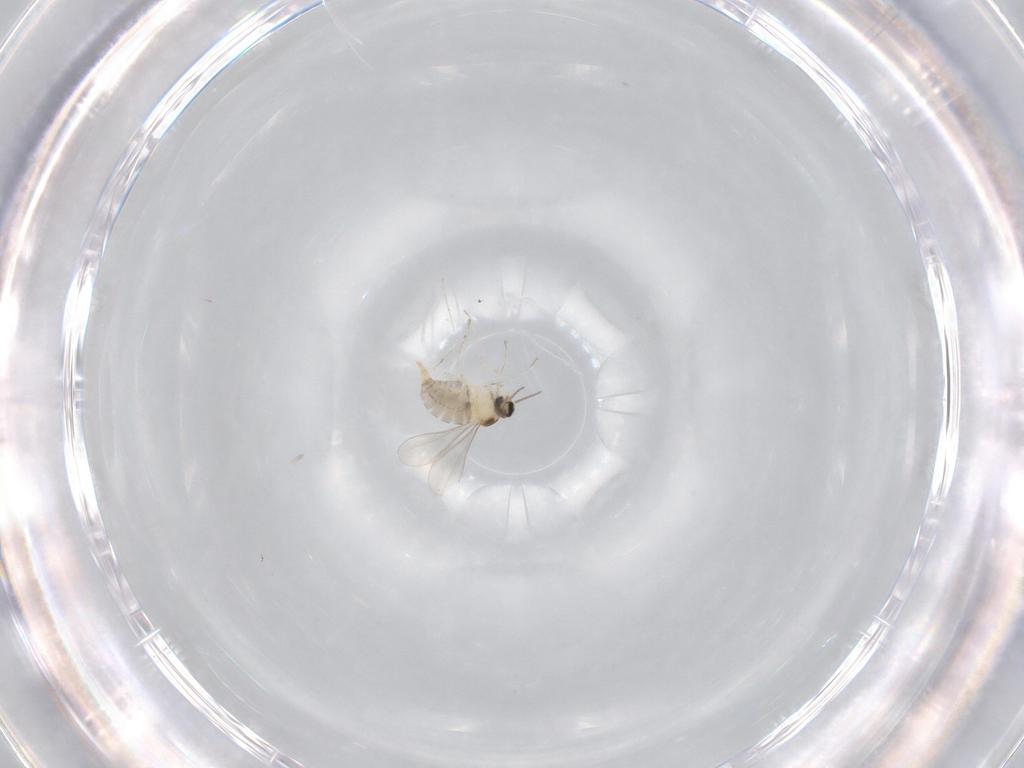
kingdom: Animalia
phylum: Arthropoda
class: Insecta
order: Diptera
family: Cecidomyiidae
